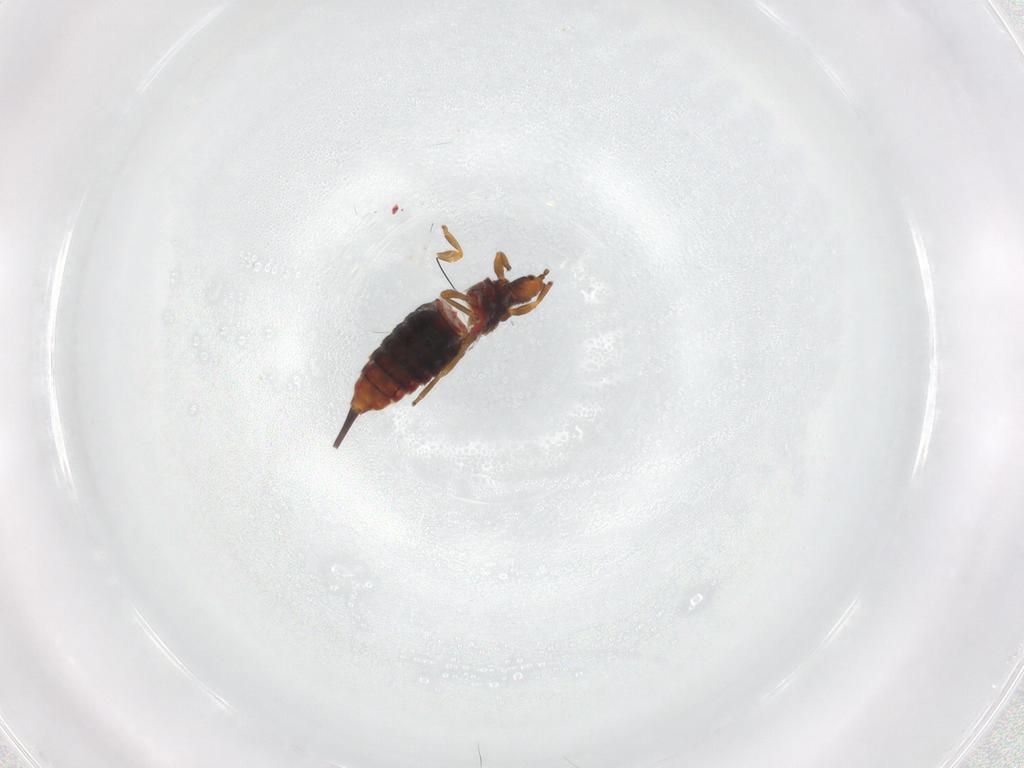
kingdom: Animalia
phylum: Arthropoda
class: Insecta
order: Thysanoptera
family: Phlaeothripidae
